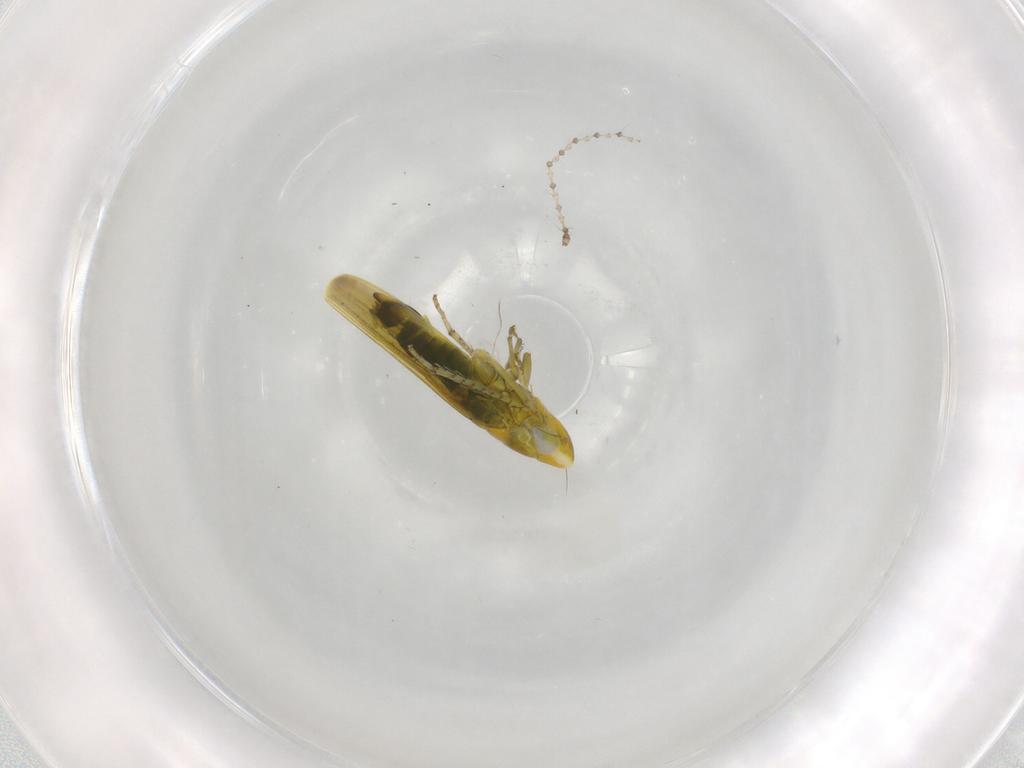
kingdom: Animalia
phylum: Arthropoda
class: Insecta
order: Hemiptera
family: Cicadellidae
